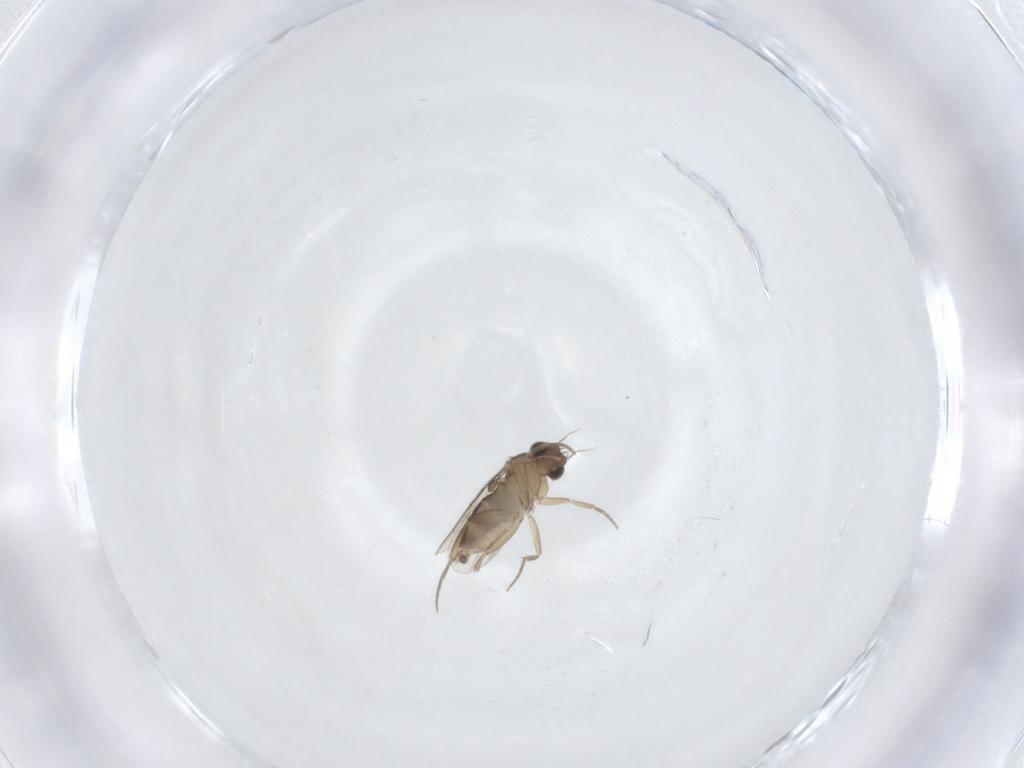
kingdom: Animalia
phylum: Arthropoda
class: Insecta
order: Diptera
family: Phoridae
